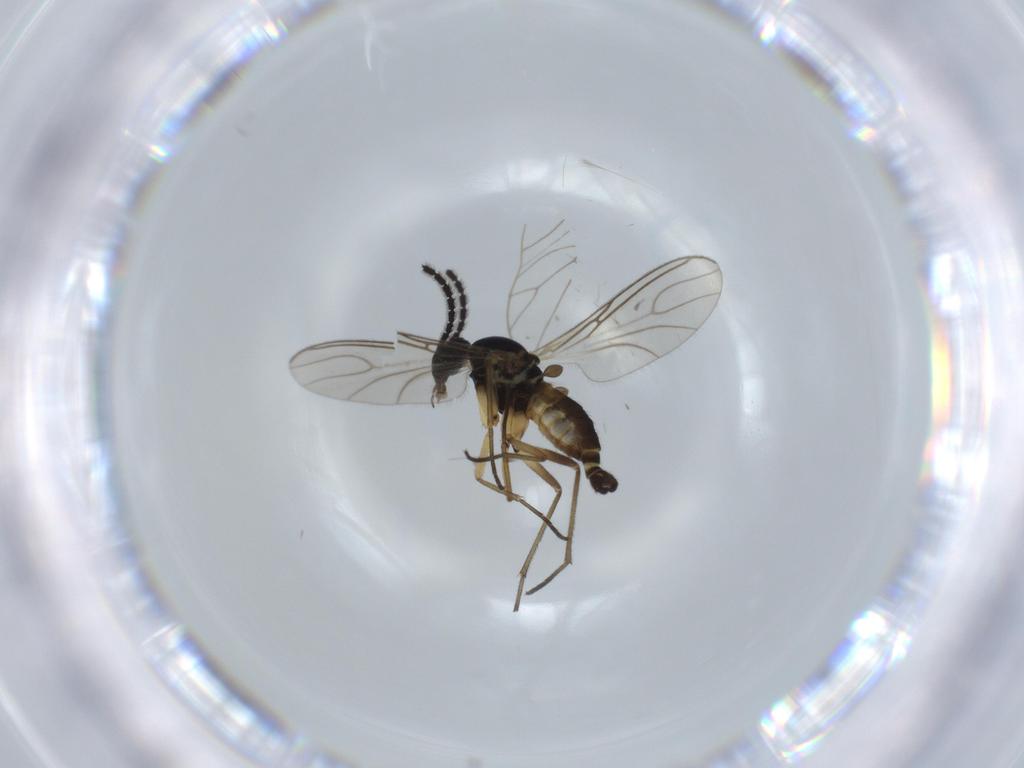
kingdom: Animalia
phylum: Arthropoda
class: Insecta
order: Diptera
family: Sciaridae
